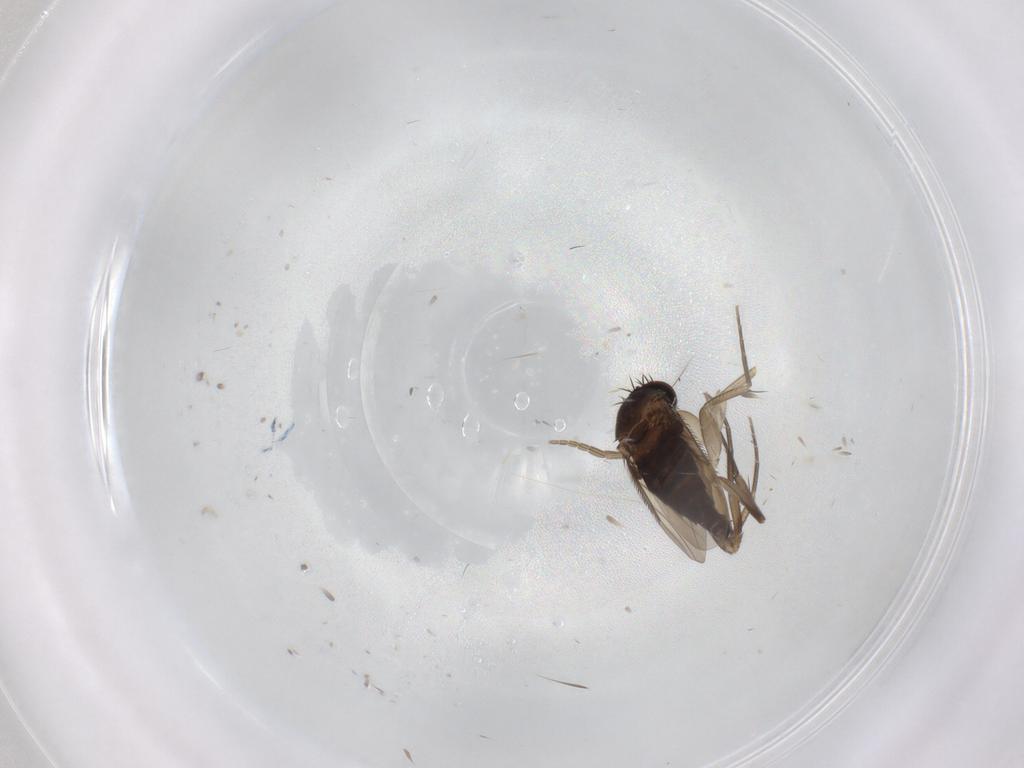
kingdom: Animalia
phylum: Arthropoda
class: Insecta
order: Diptera
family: Phoridae
